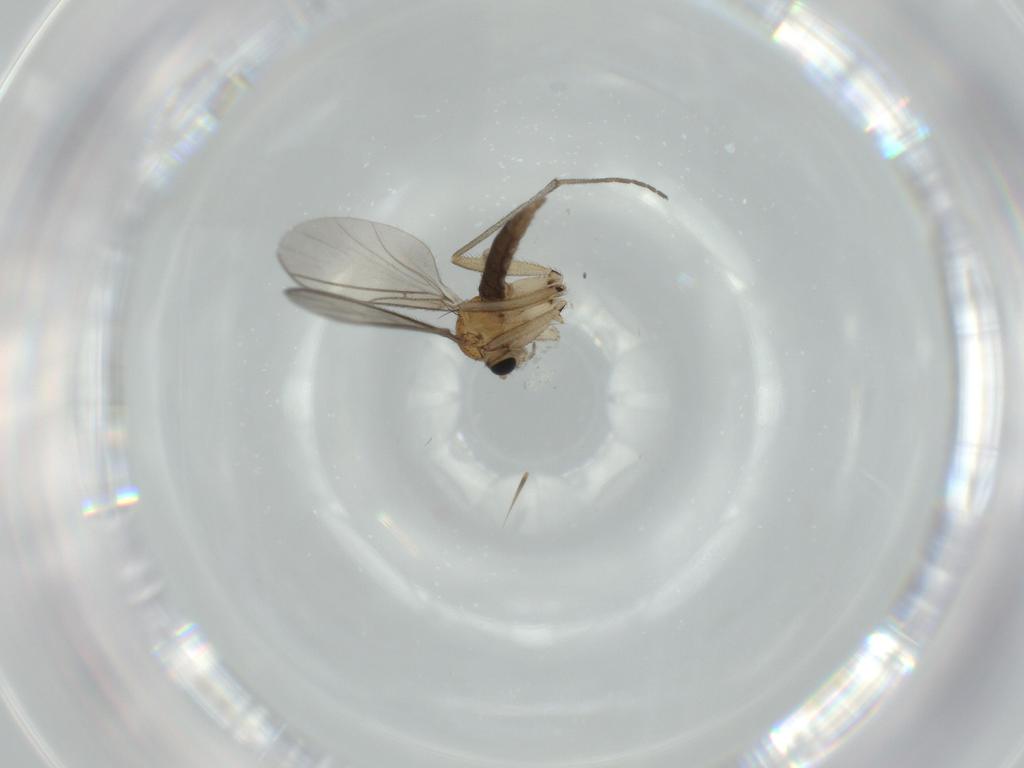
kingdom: Animalia
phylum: Arthropoda
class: Insecta
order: Diptera
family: Sciaridae
